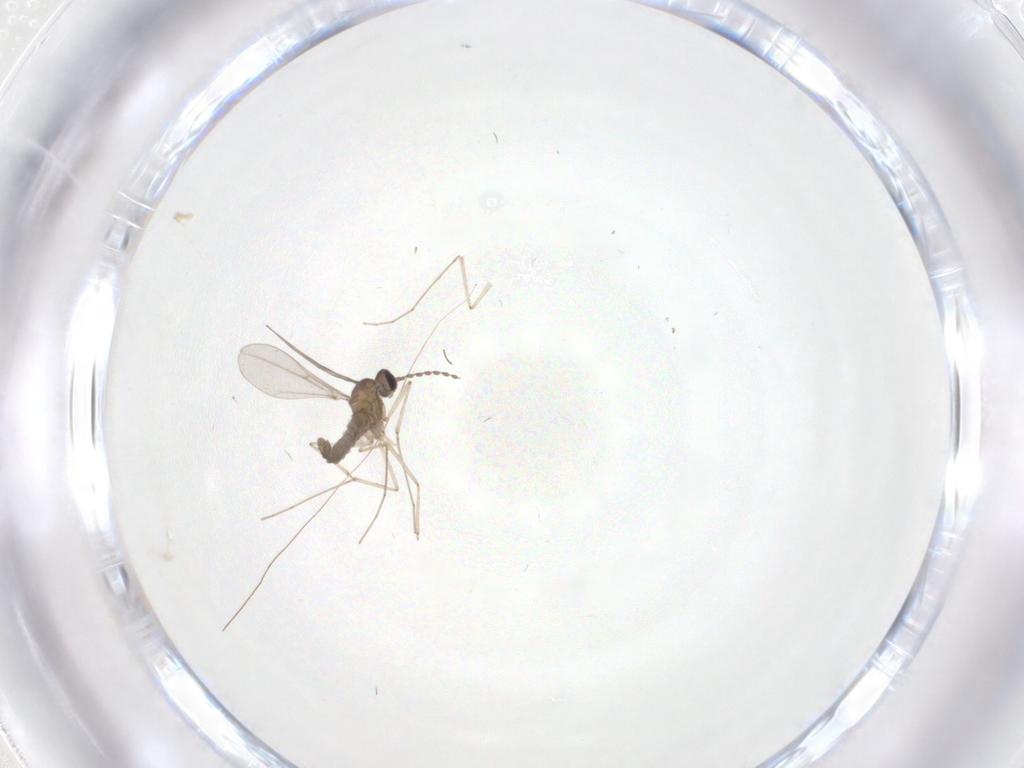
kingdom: Animalia
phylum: Arthropoda
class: Insecta
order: Diptera
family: Cecidomyiidae
